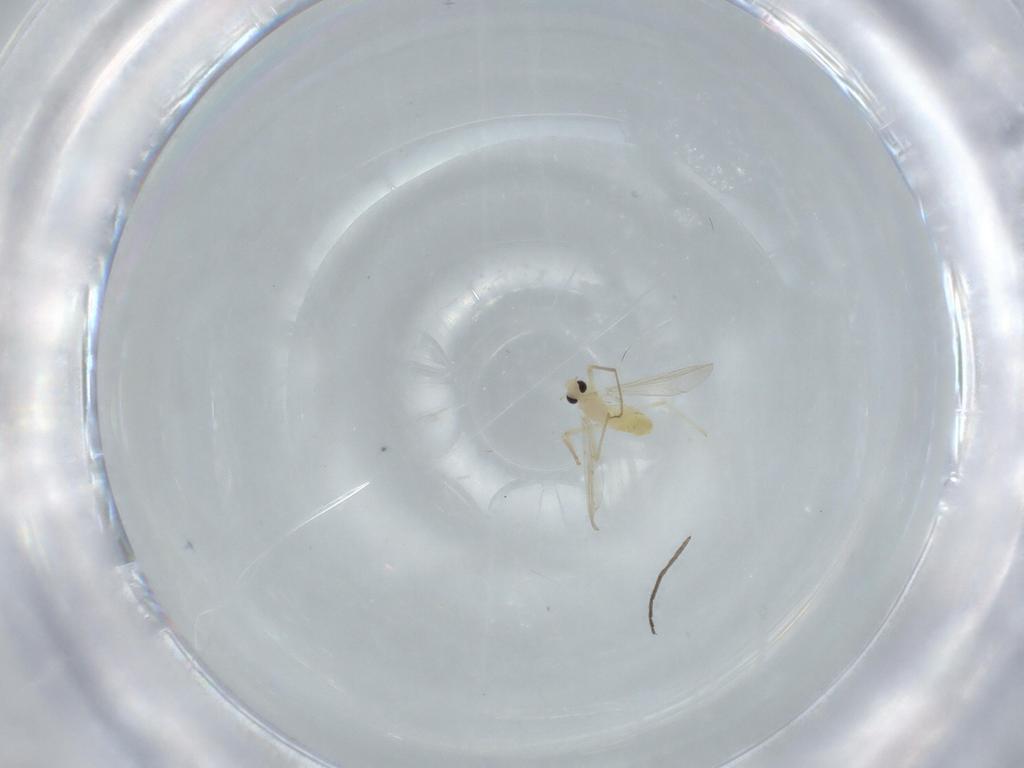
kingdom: Animalia
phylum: Arthropoda
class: Insecta
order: Diptera
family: Chironomidae
